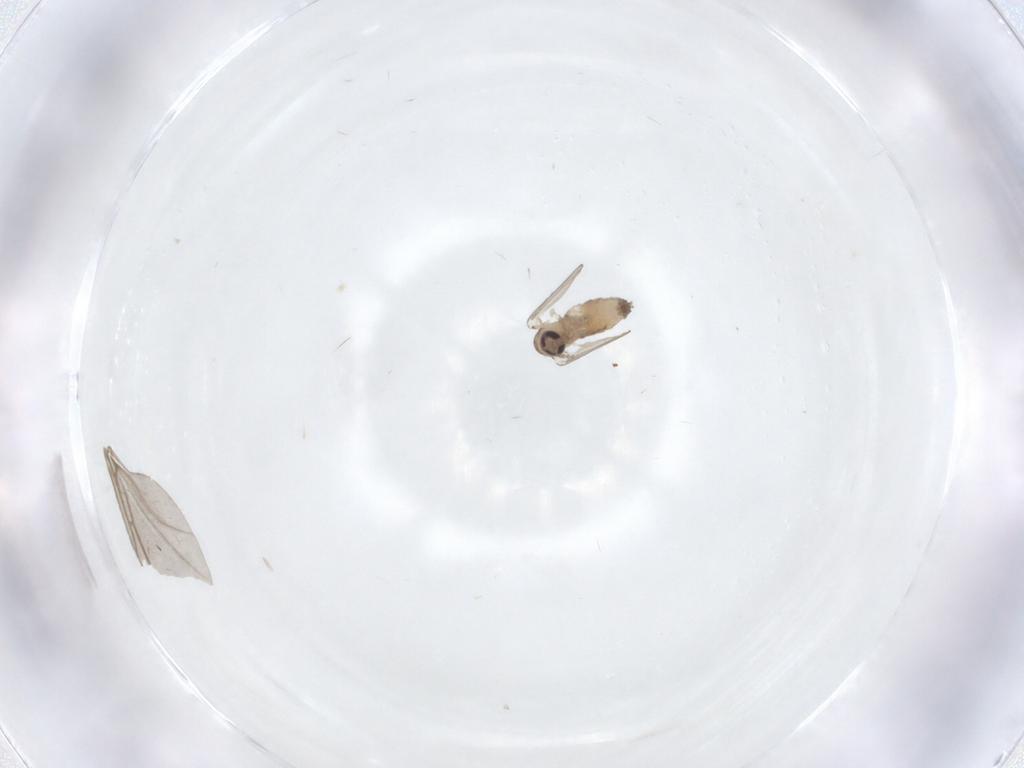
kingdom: Animalia
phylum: Arthropoda
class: Insecta
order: Diptera
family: Psychodidae
